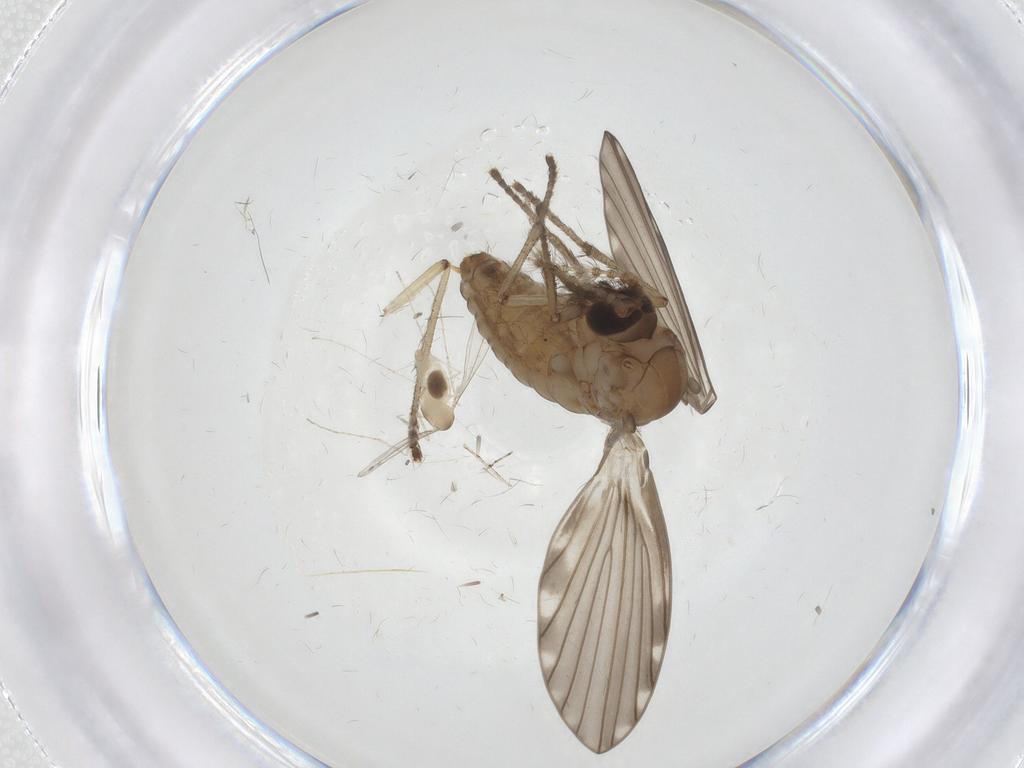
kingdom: Animalia
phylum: Arthropoda
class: Insecta
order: Diptera
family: Psychodidae
